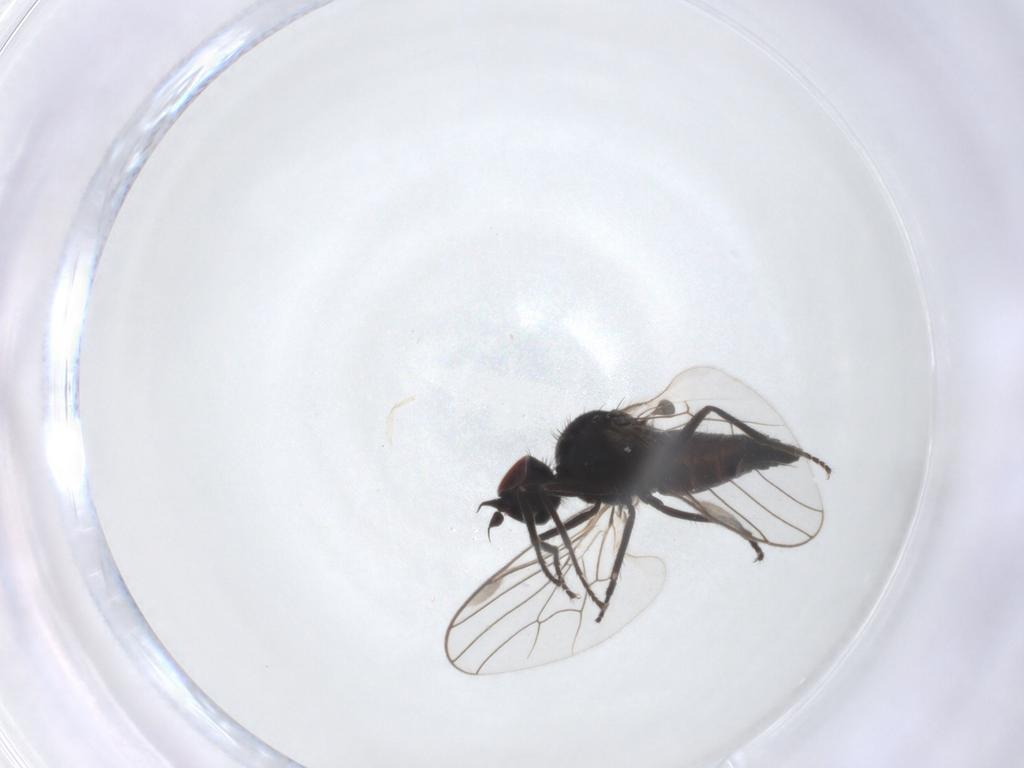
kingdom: Animalia
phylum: Arthropoda
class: Insecta
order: Diptera
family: Hybotidae
